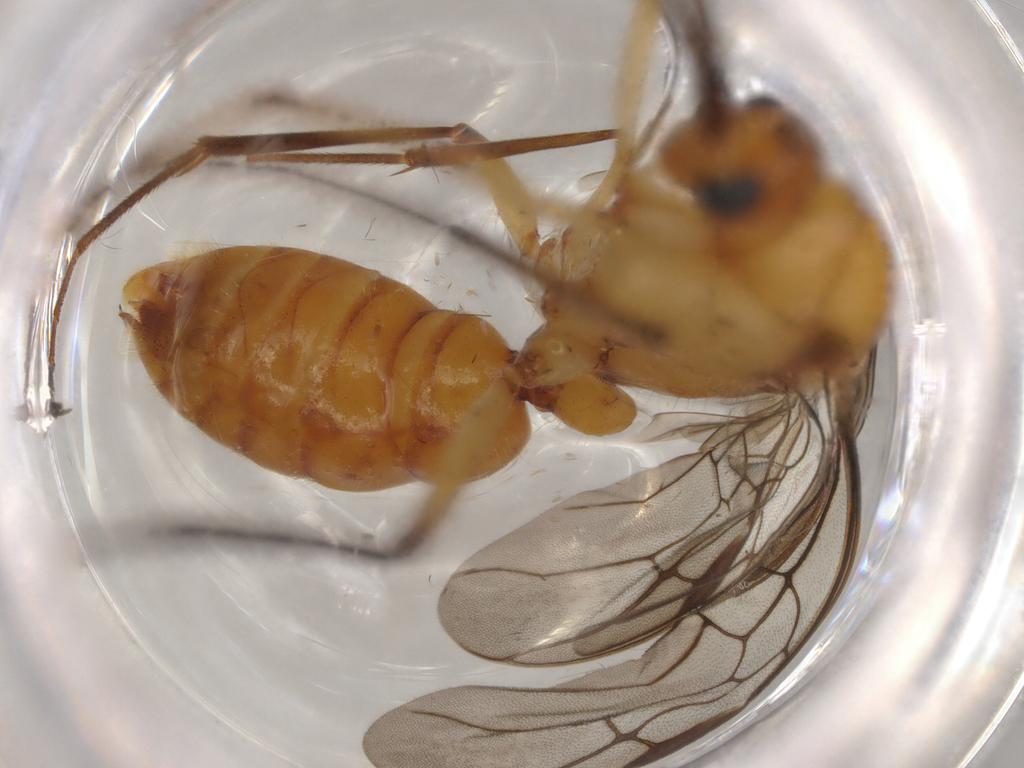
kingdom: Animalia
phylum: Arthropoda
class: Insecta
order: Hymenoptera
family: Formicidae
